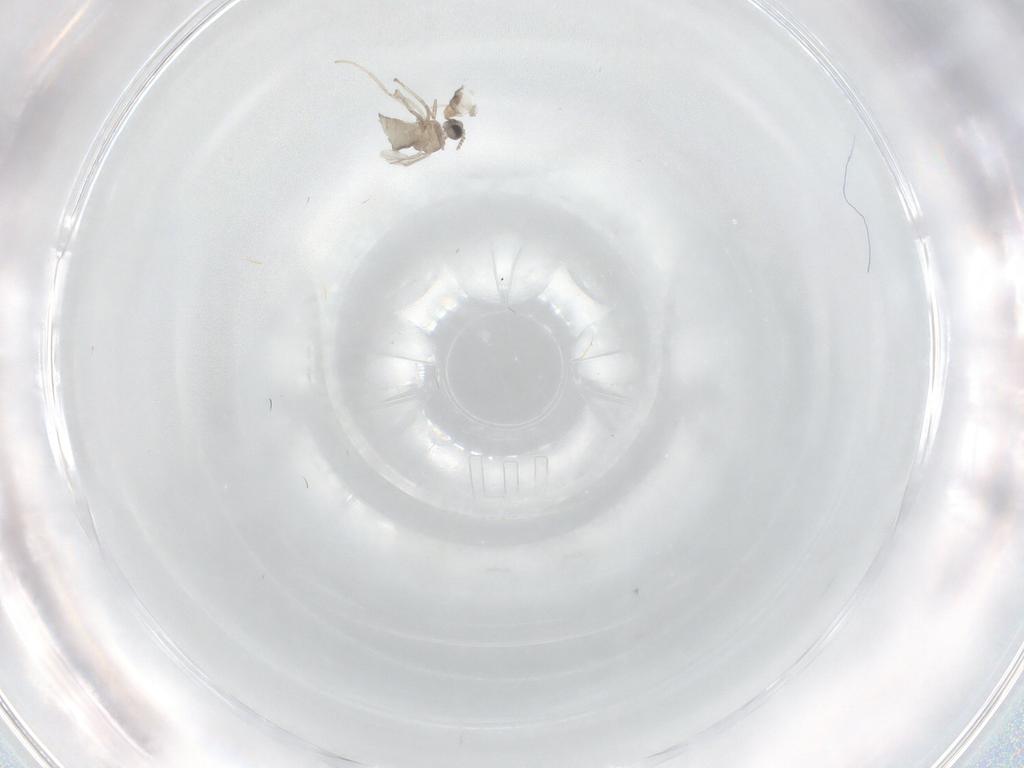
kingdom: Animalia
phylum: Arthropoda
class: Insecta
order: Diptera
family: Cecidomyiidae
